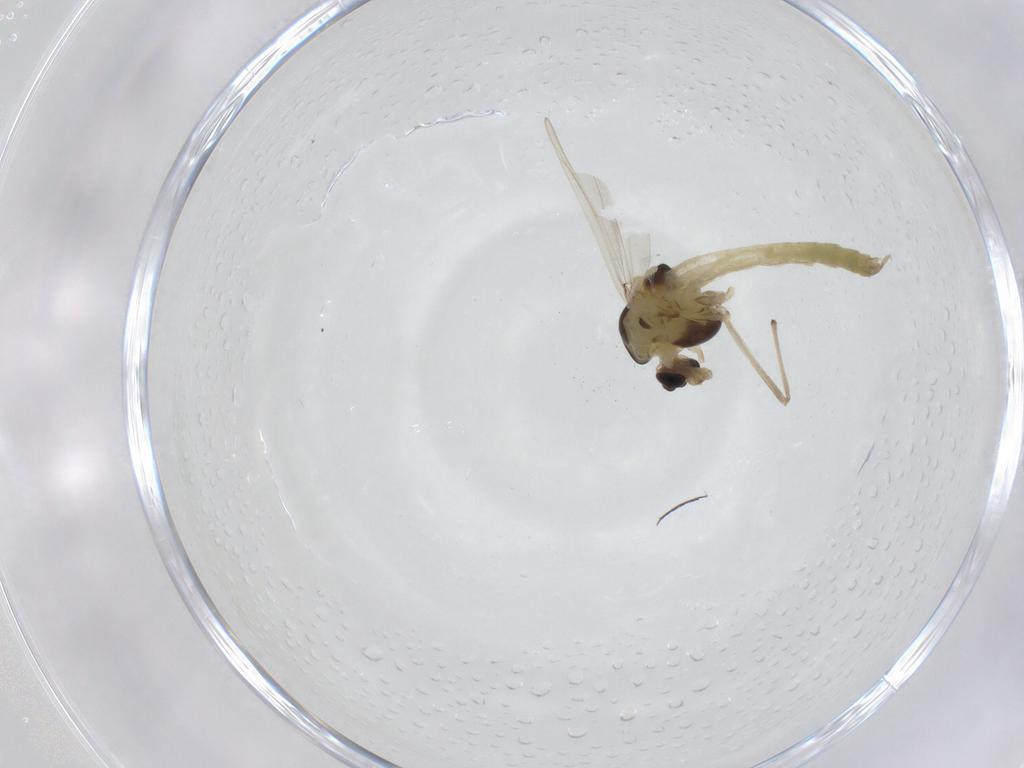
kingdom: Animalia
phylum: Arthropoda
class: Insecta
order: Diptera
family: Chironomidae
